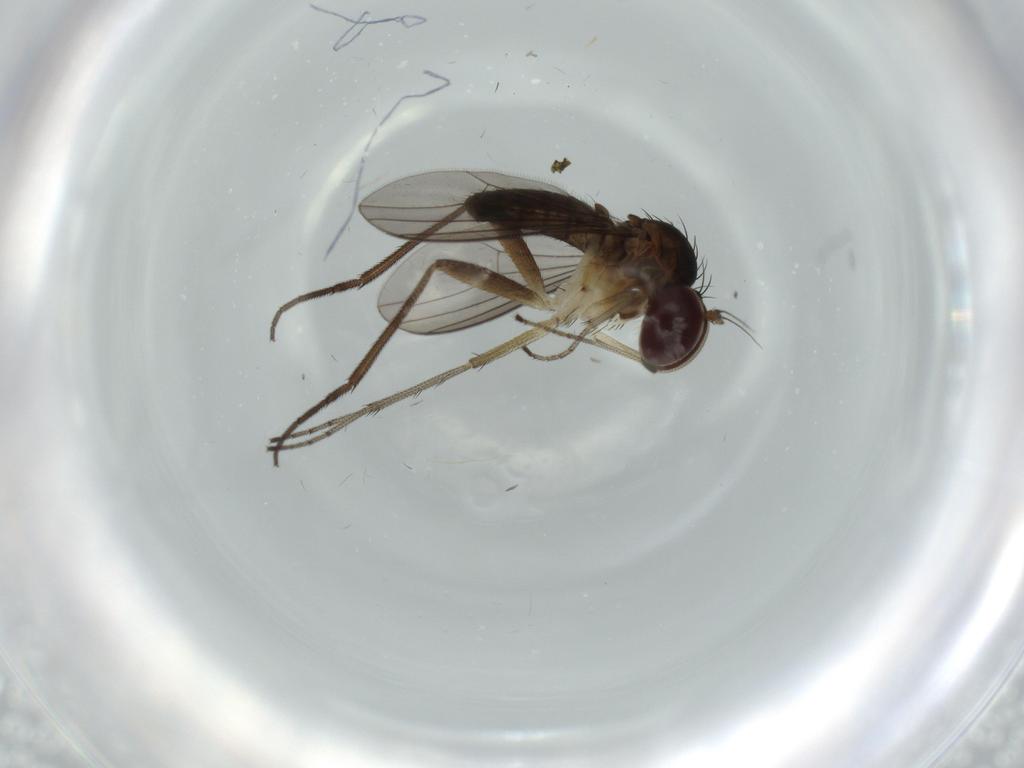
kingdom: Animalia
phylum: Arthropoda
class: Insecta
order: Diptera
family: Dolichopodidae
